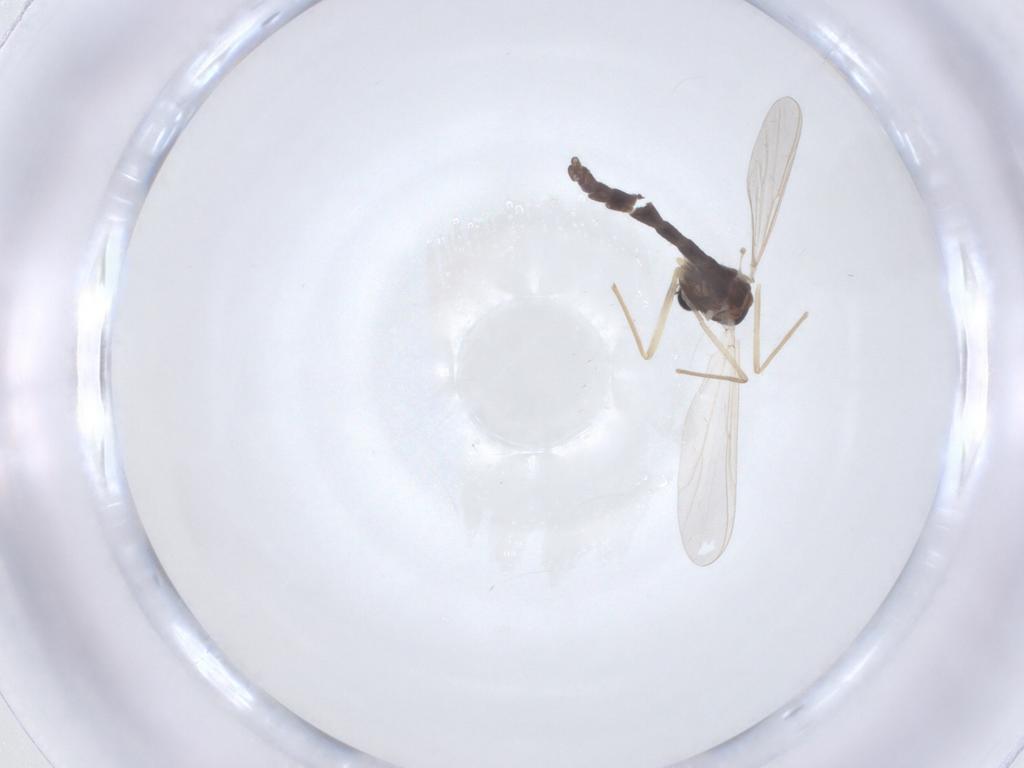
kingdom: Animalia
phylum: Arthropoda
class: Insecta
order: Diptera
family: Chironomidae
